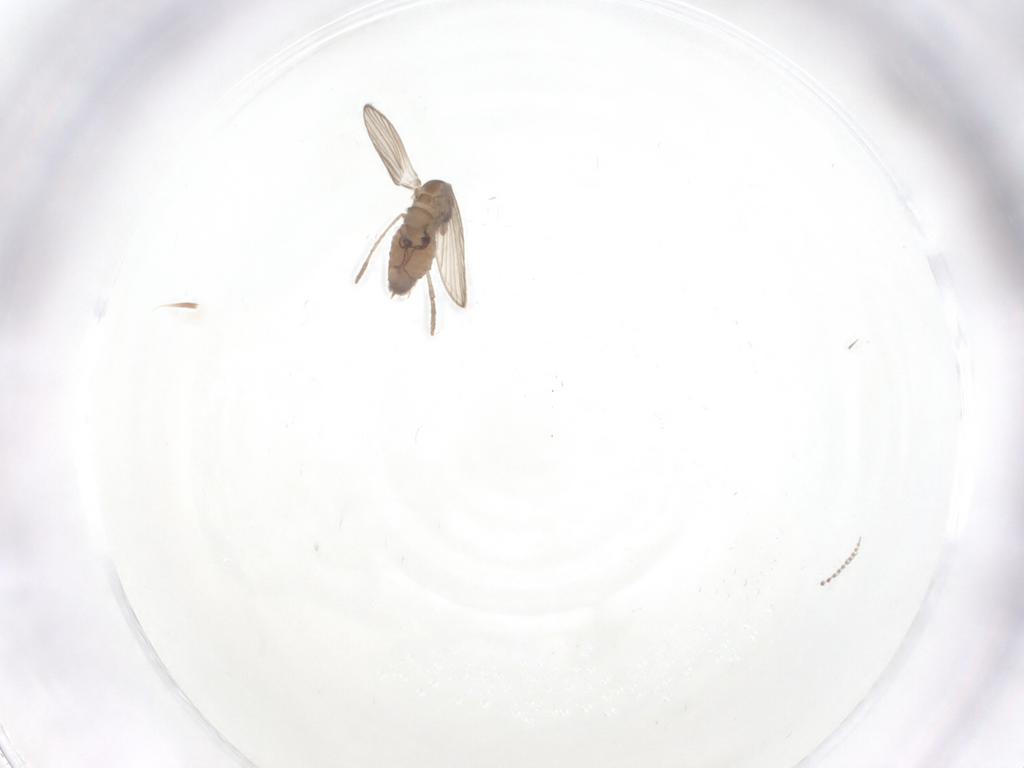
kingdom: Animalia
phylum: Arthropoda
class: Insecta
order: Diptera
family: Psychodidae
